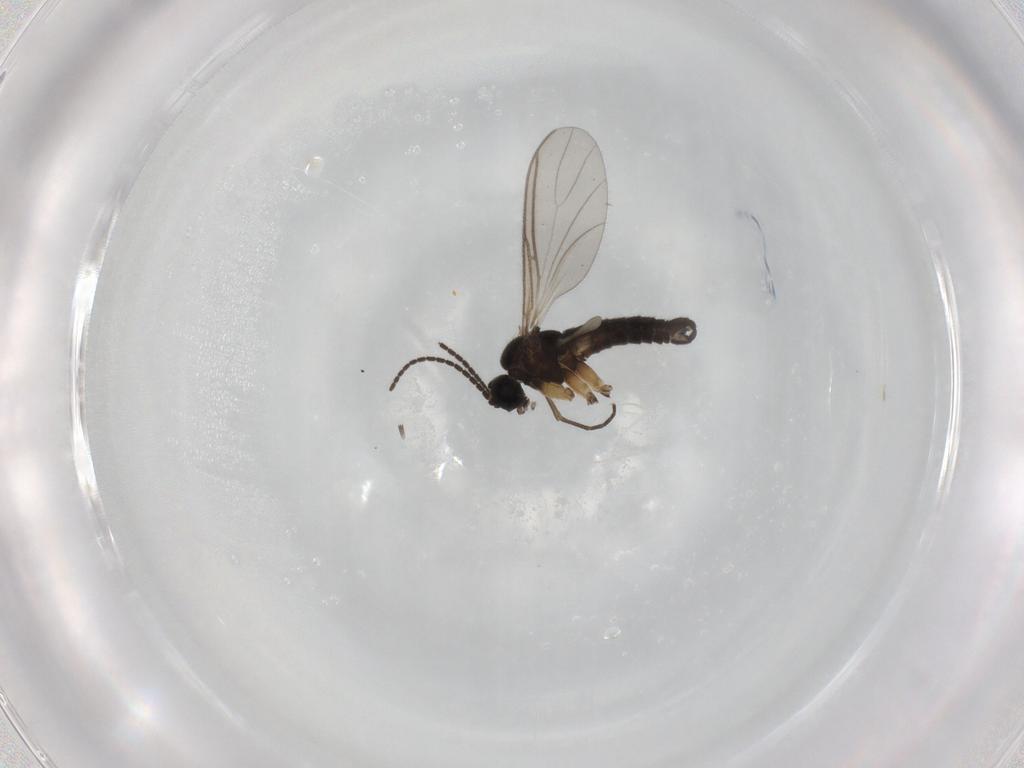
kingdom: Animalia
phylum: Arthropoda
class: Insecta
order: Diptera
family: Sciaridae
